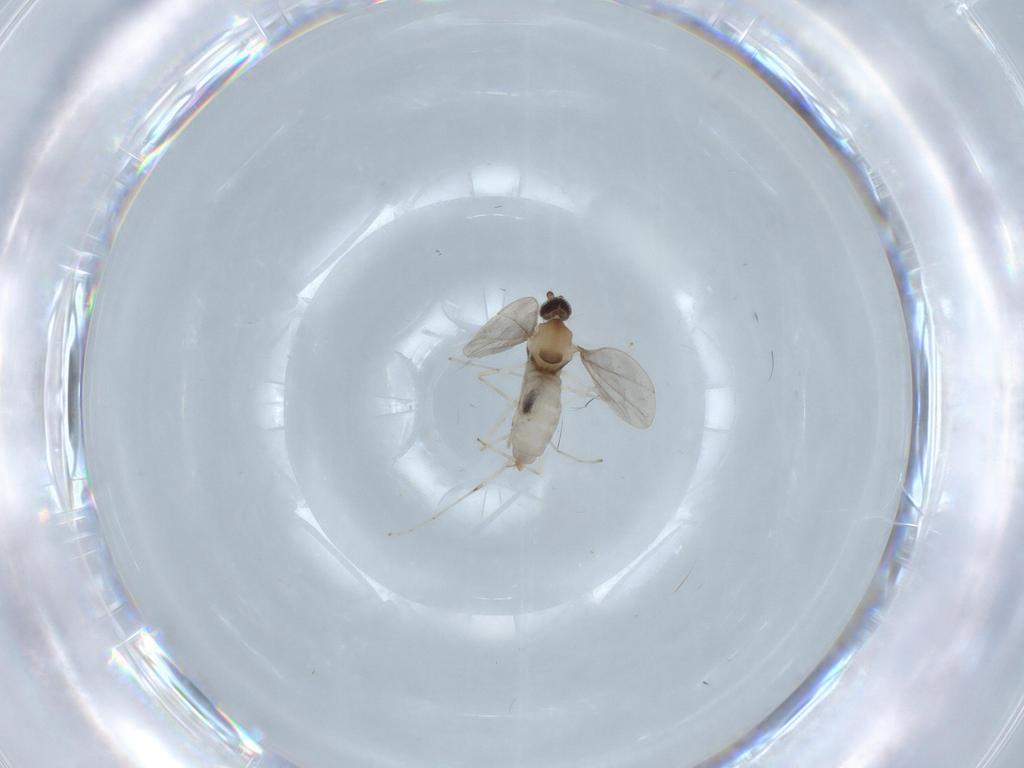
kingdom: Animalia
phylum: Arthropoda
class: Insecta
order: Diptera
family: Cecidomyiidae
